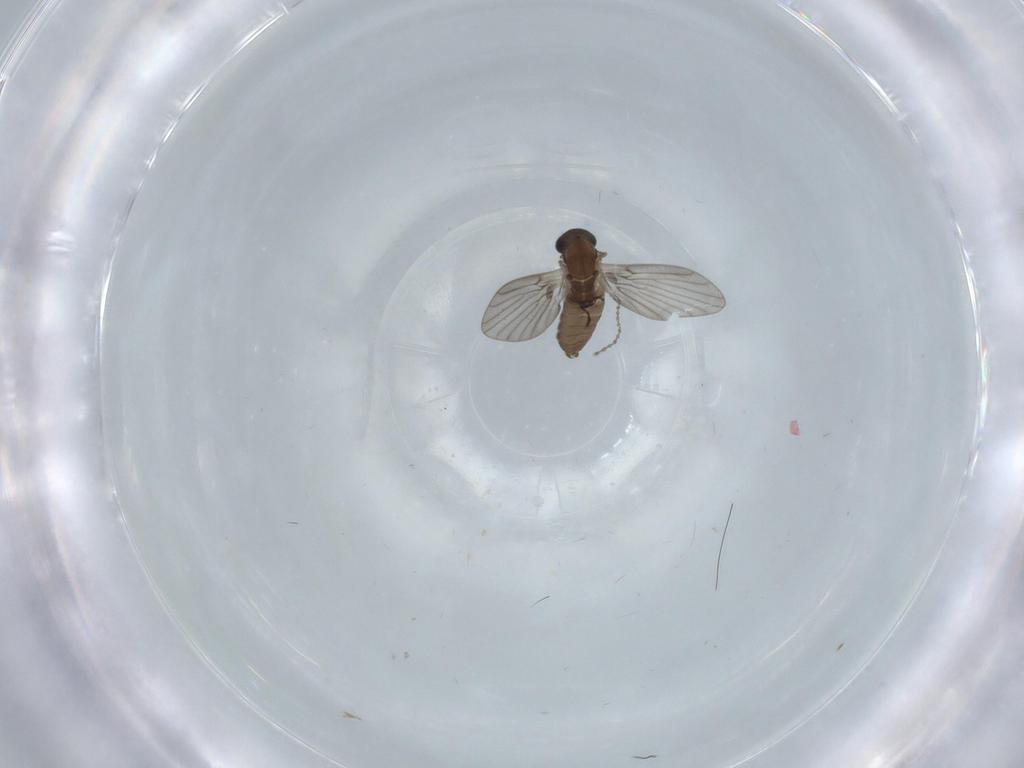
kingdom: Animalia
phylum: Arthropoda
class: Insecta
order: Diptera
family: Psychodidae
